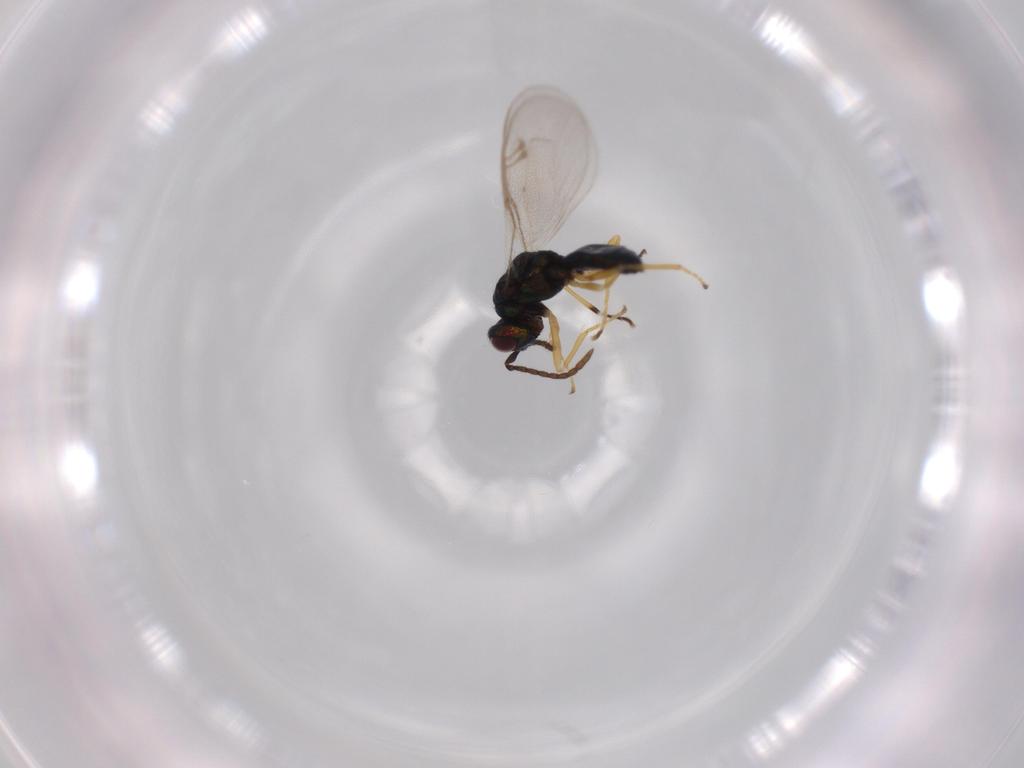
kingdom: Animalia
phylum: Arthropoda
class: Insecta
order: Hymenoptera
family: Pteromalidae
